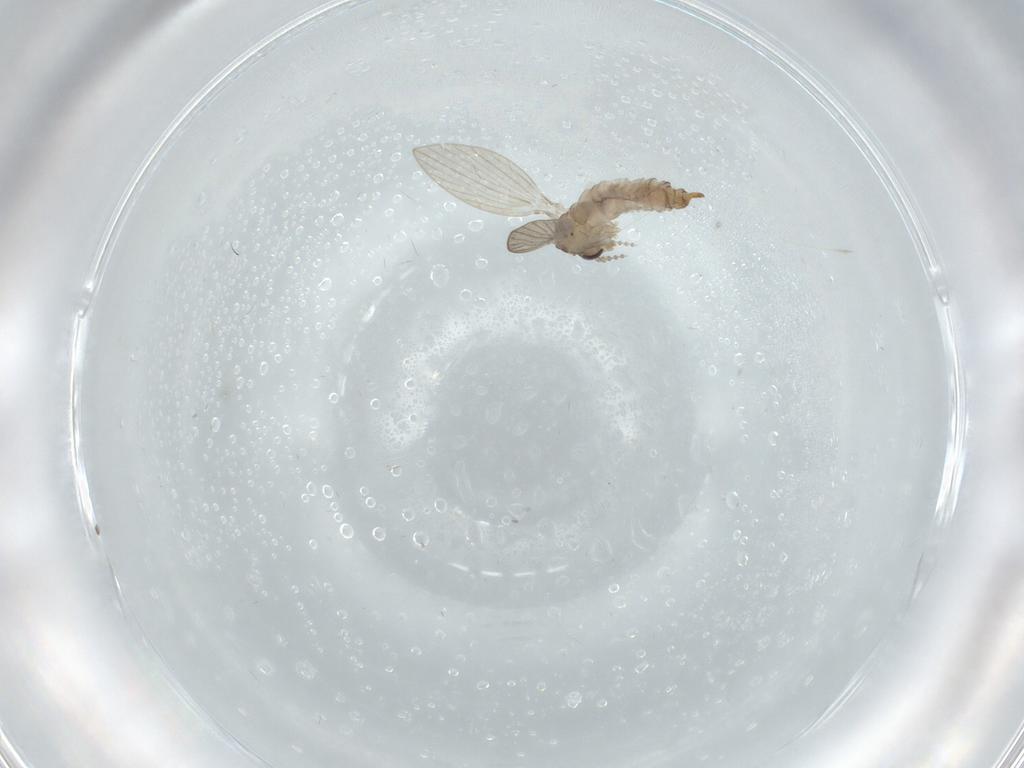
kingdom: Animalia
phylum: Arthropoda
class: Insecta
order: Diptera
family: Psychodidae
